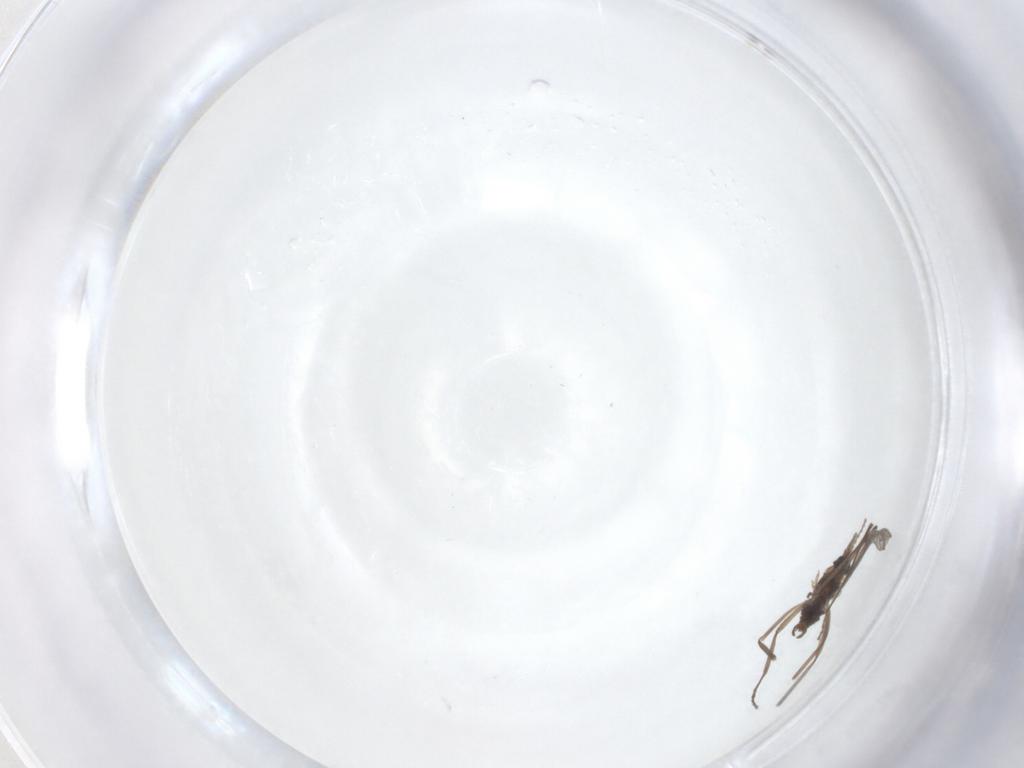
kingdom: Animalia
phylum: Arthropoda
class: Insecta
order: Diptera
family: Cecidomyiidae
